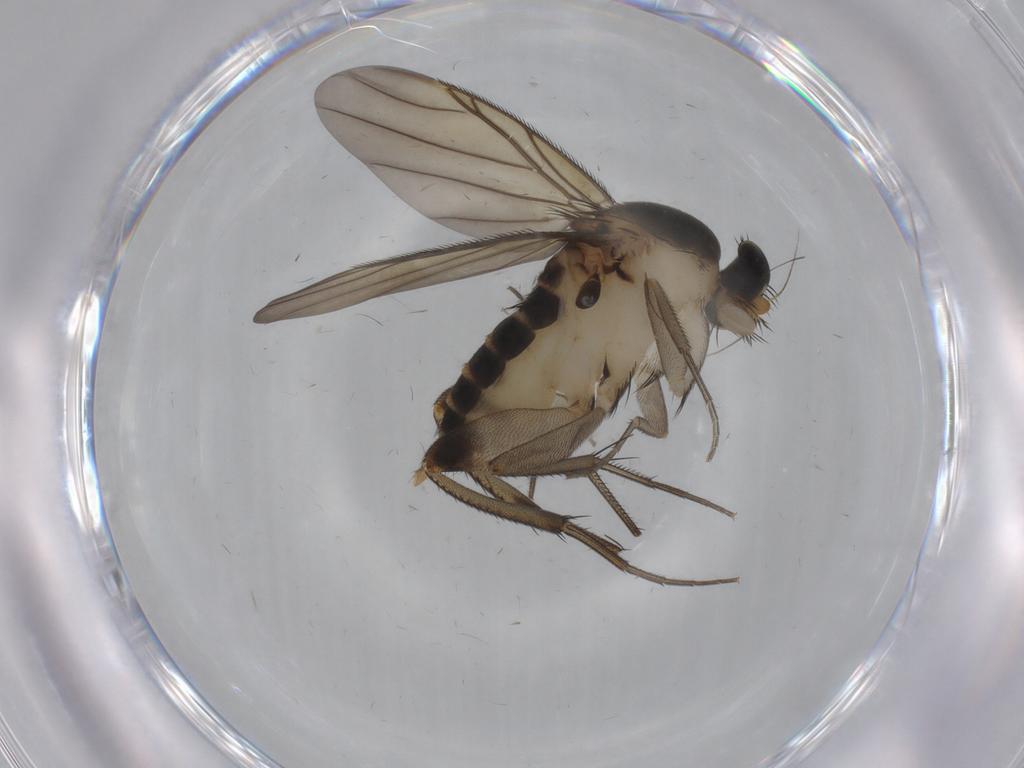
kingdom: Animalia
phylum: Arthropoda
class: Insecta
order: Diptera
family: Phoridae
